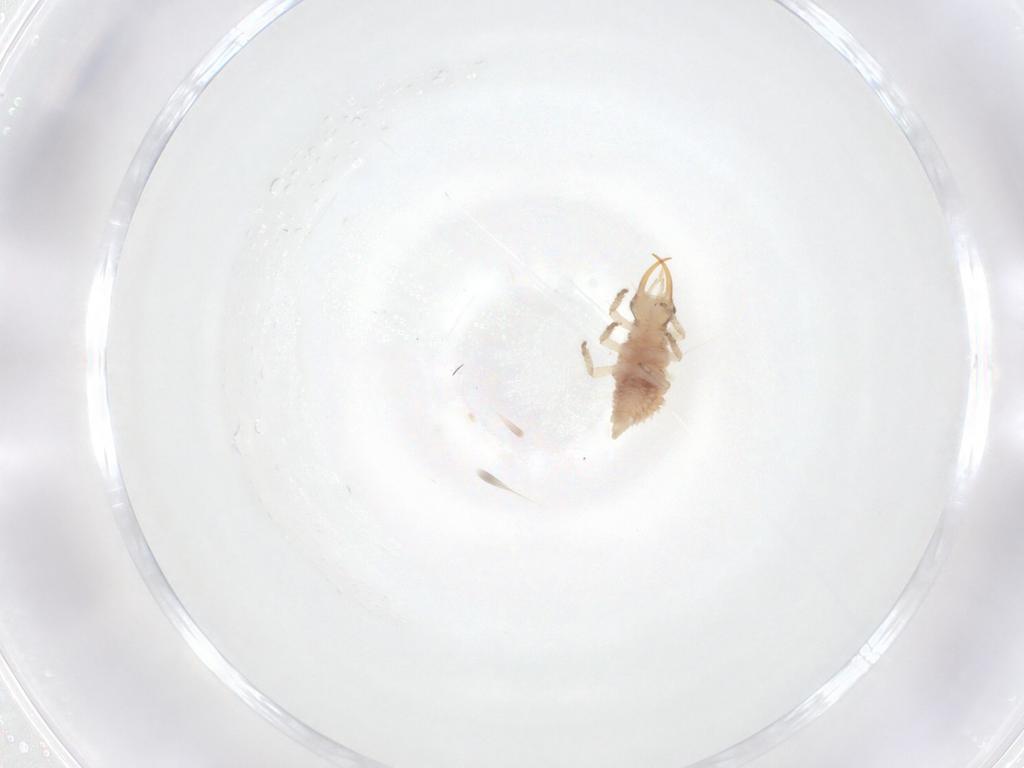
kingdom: Animalia
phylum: Arthropoda
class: Insecta
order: Neuroptera
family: Chrysopidae
